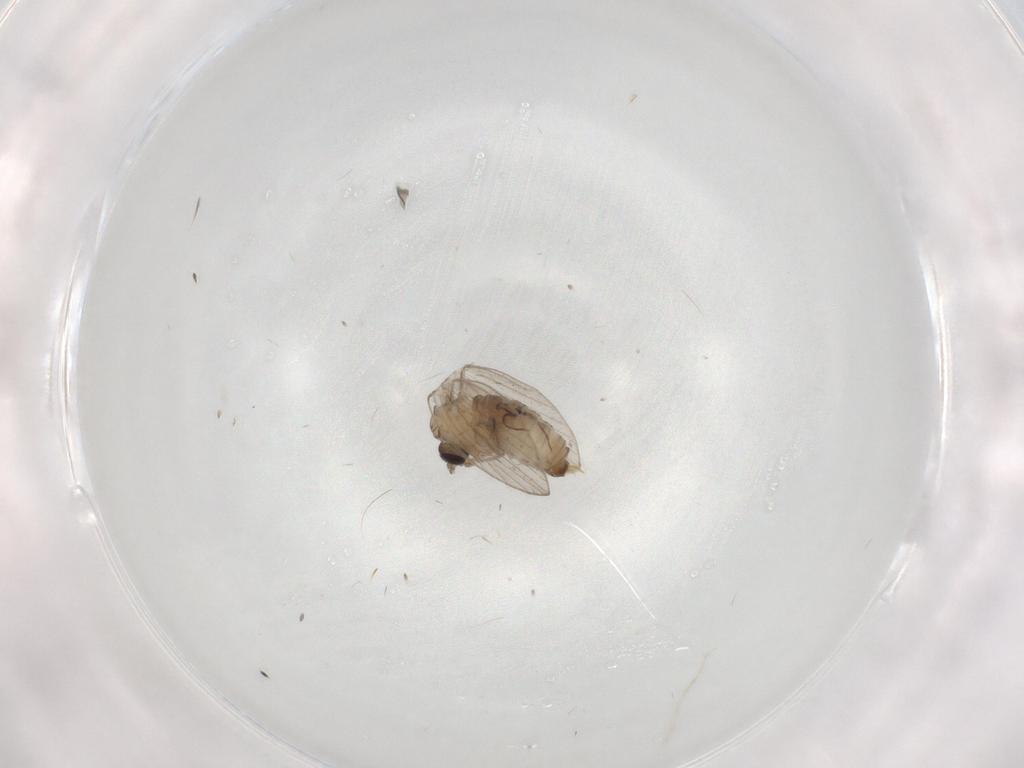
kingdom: Animalia
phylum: Arthropoda
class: Insecta
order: Diptera
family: Psychodidae
